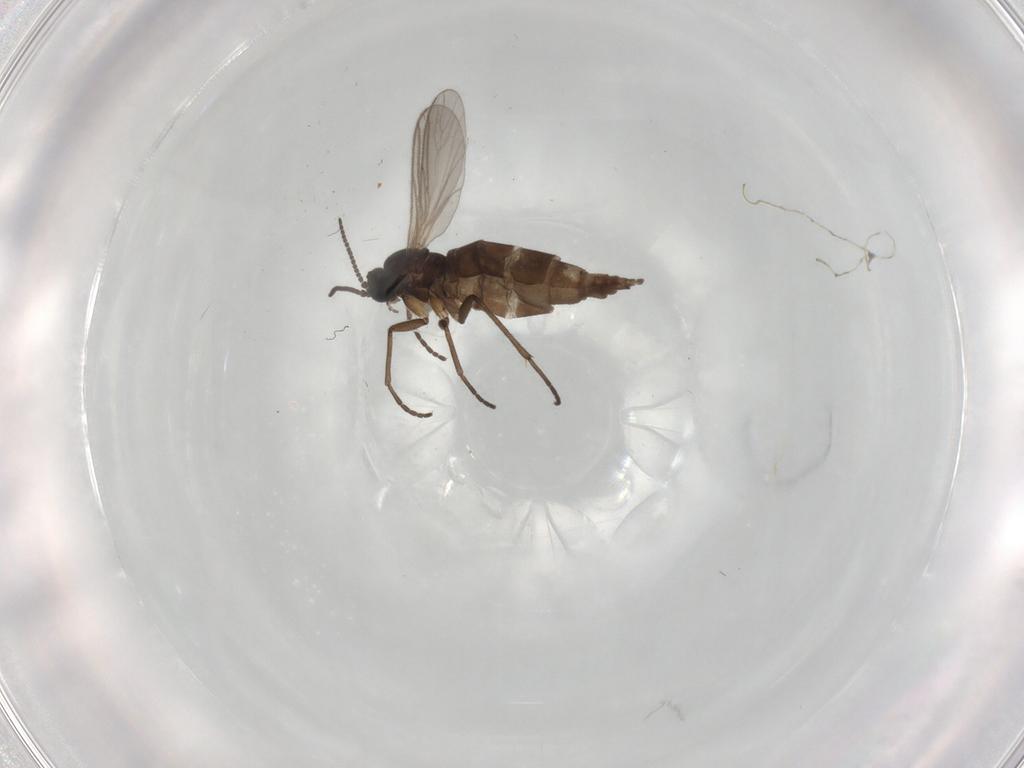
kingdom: Animalia
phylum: Arthropoda
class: Insecta
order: Diptera
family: Sciaridae
